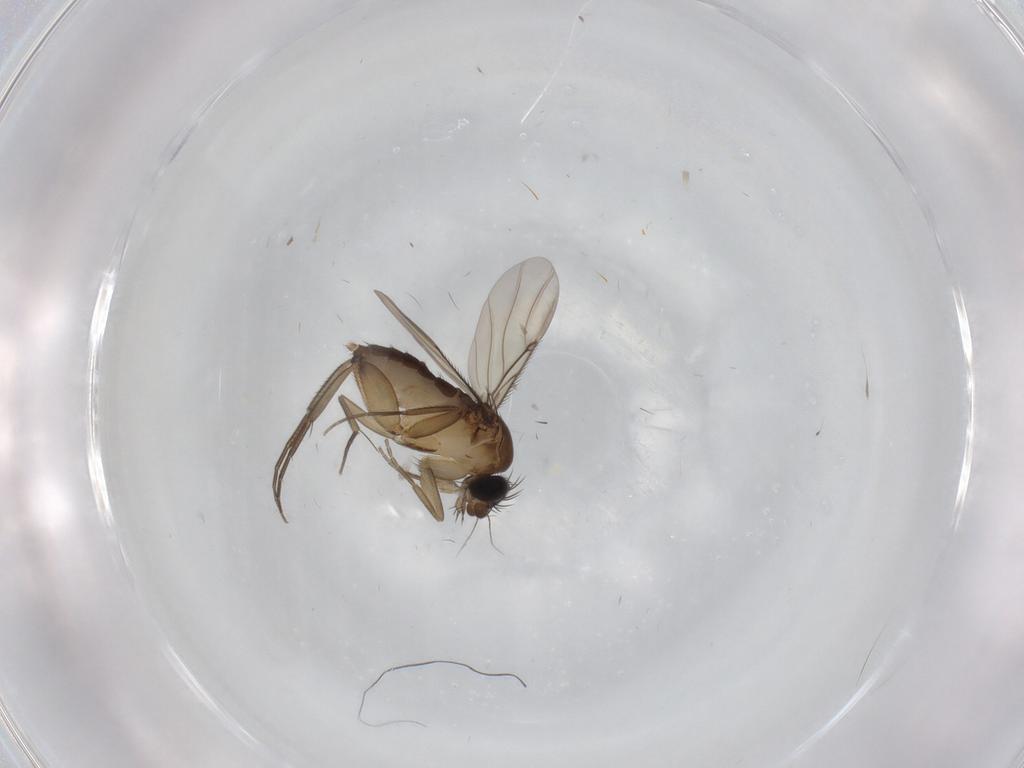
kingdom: Animalia
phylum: Arthropoda
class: Insecta
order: Diptera
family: Phoridae
